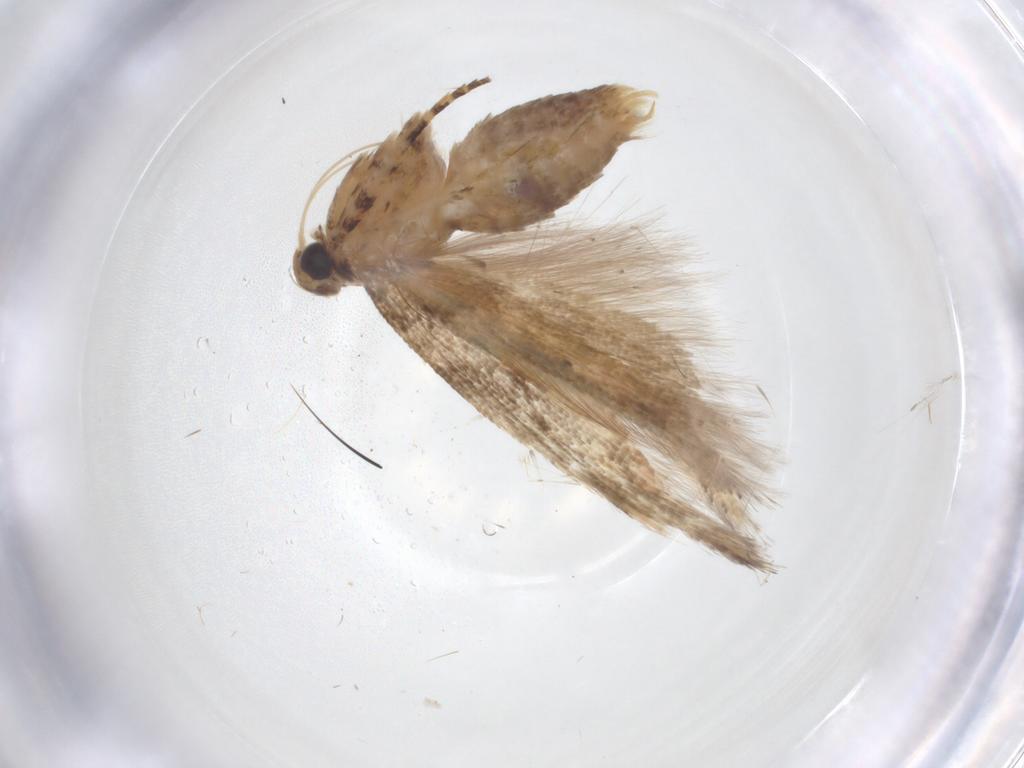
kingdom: Animalia
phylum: Arthropoda
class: Insecta
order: Lepidoptera
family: Gelechiidae
